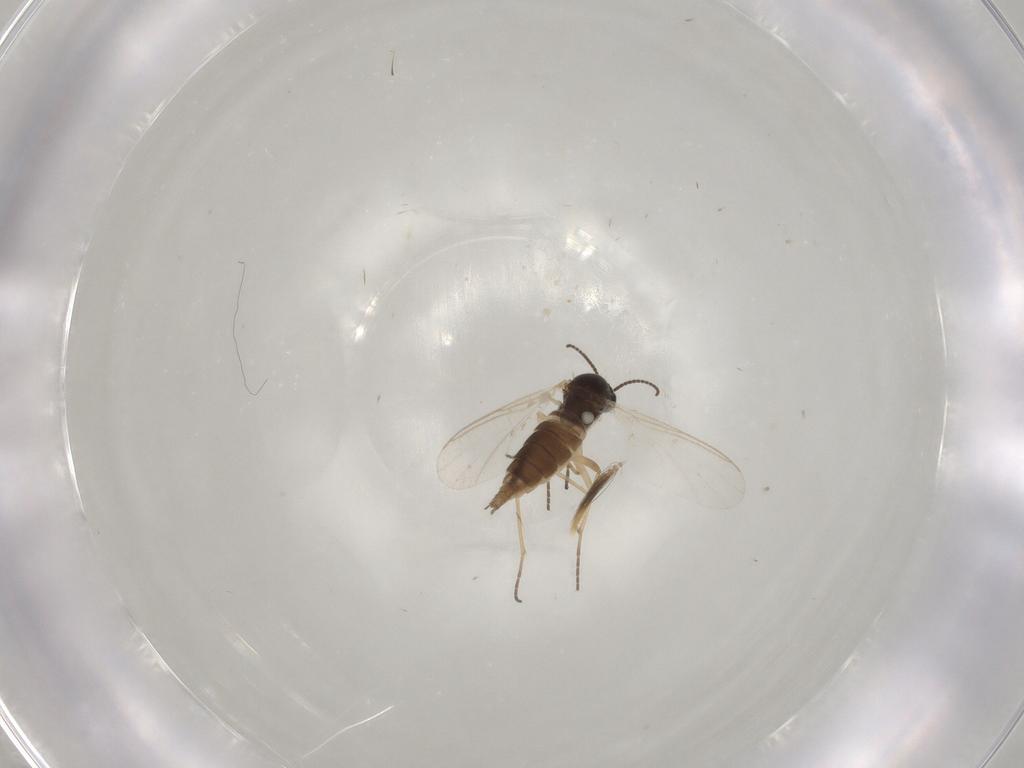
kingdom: Animalia
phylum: Arthropoda
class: Insecta
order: Diptera
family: Sciaridae
